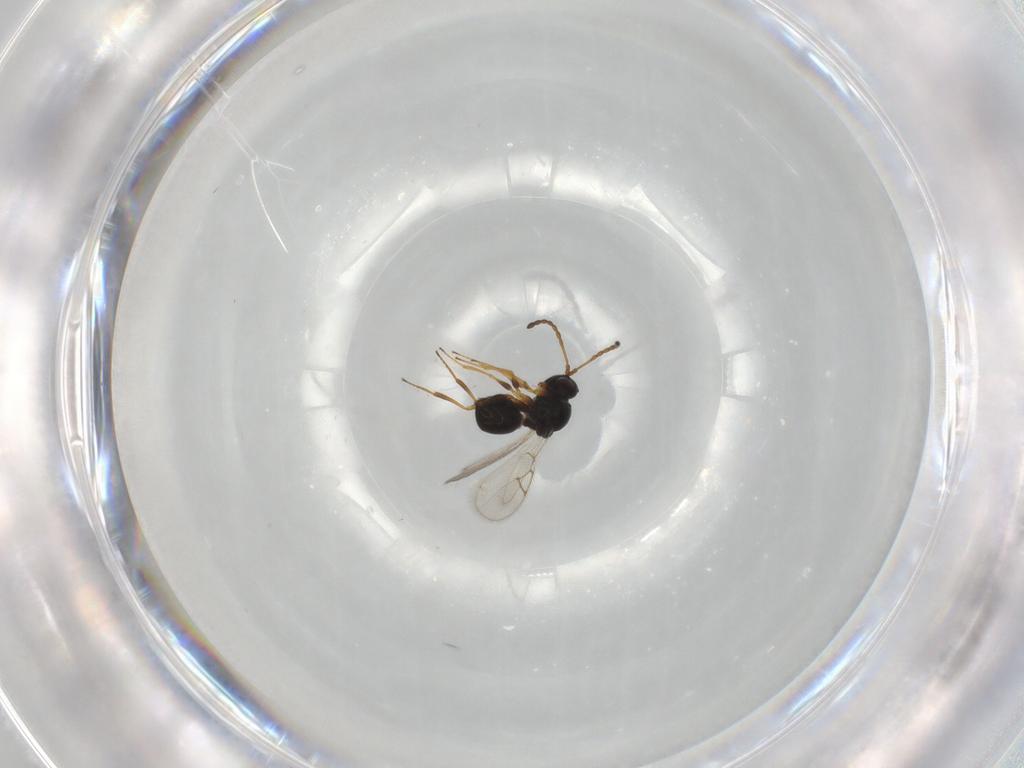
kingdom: Animalia
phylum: Arthropoda
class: Insecta
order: Hymenoptera
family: Figitidae
